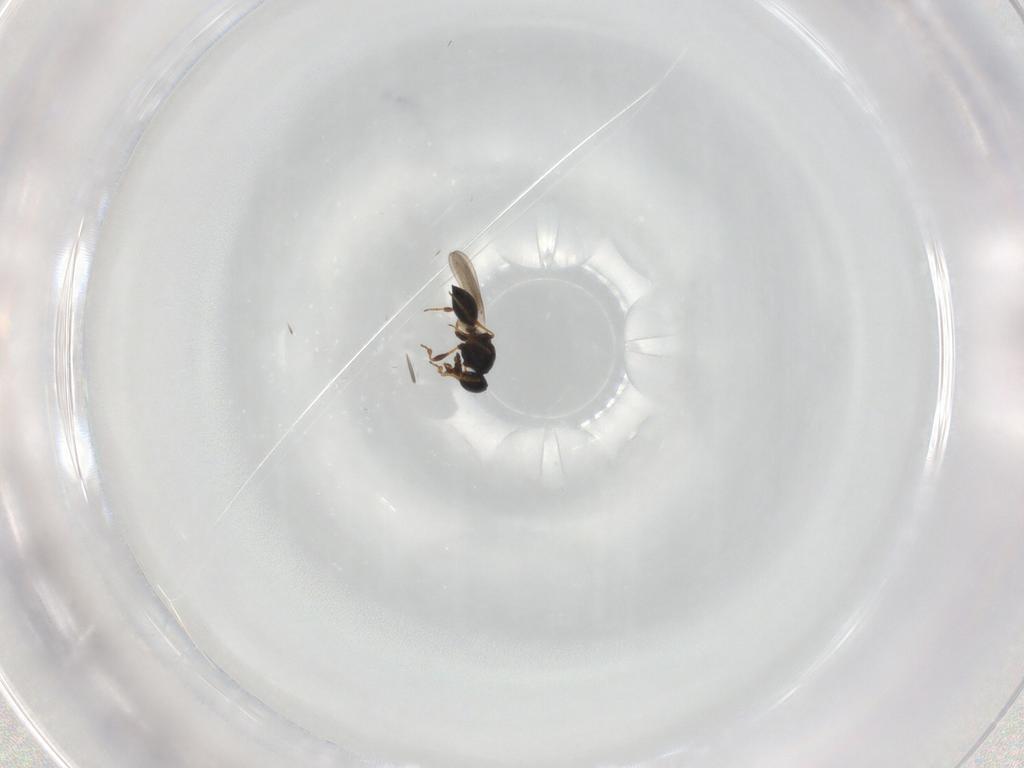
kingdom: Animalia
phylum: Arthropoda
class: Insecta
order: Hymenoptera
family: Platygastridae
